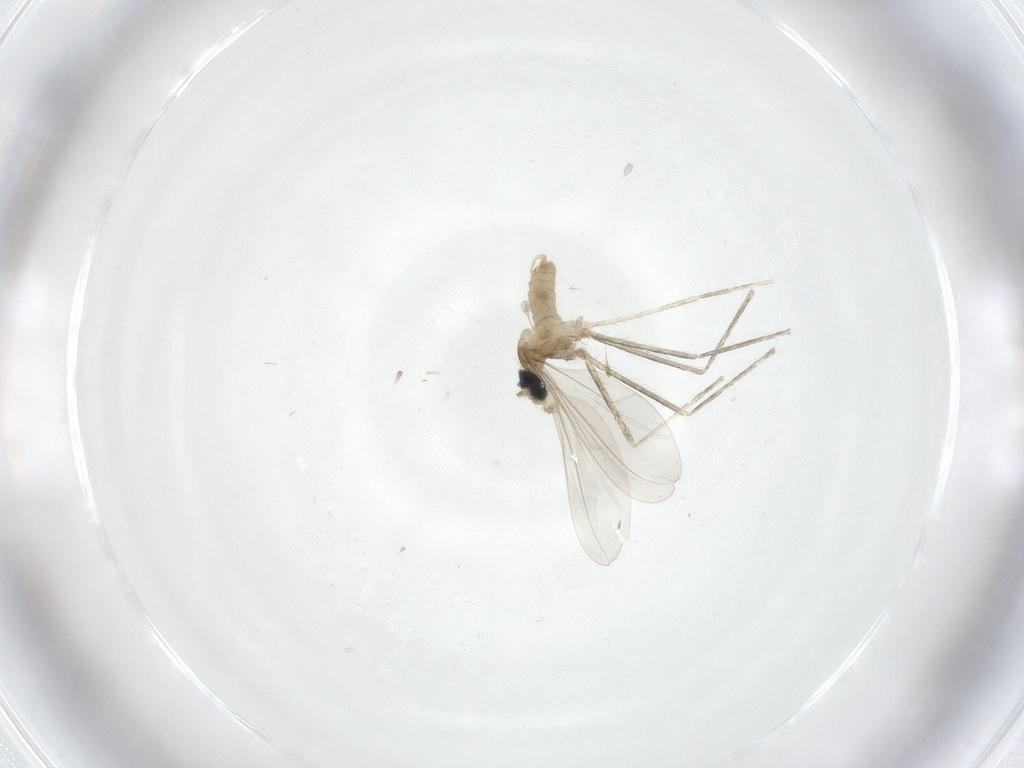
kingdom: Animalia
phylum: Arthropoda
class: Insecta
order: Diptera
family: Cecidomyiidae
